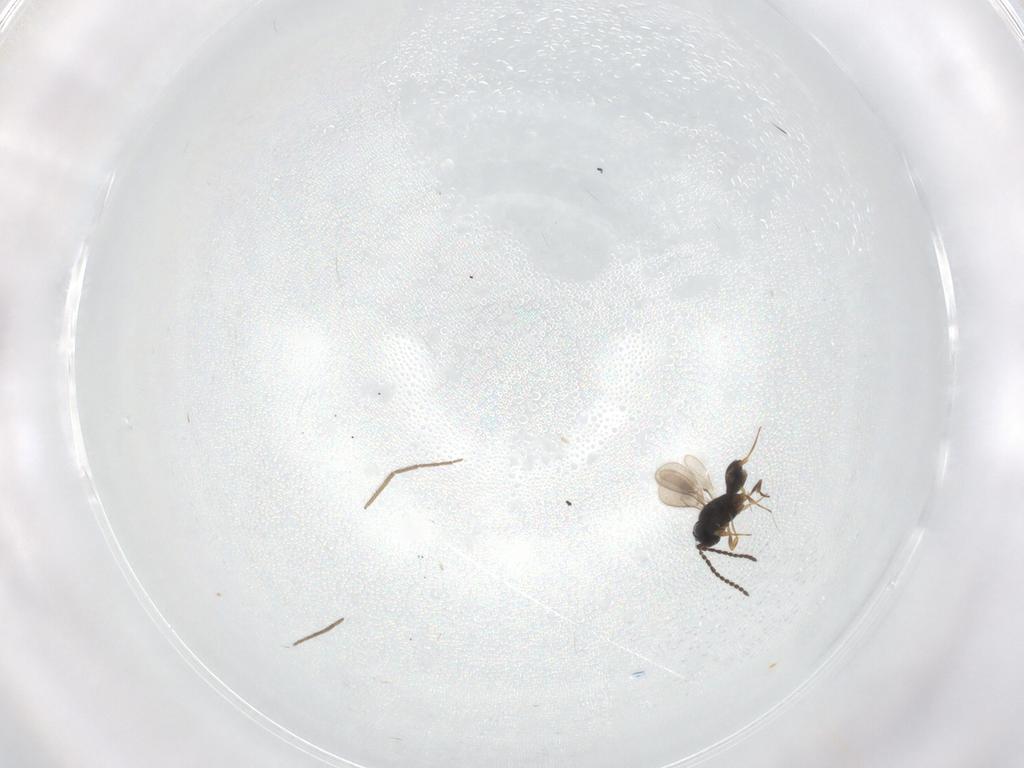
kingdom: Animalia
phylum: Arthropoda
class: Insecta
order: Hymenoptera
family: Scelionidae
